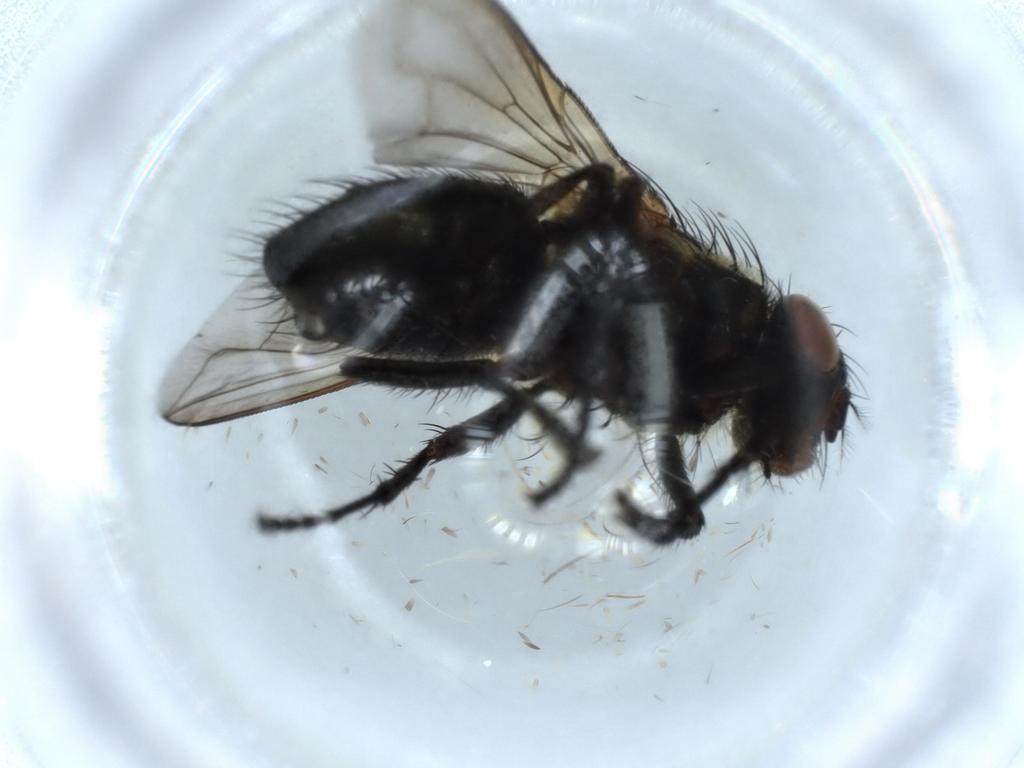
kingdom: Animalia
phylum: Arthropoda
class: Insecta
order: Diptera
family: Polleniidae
